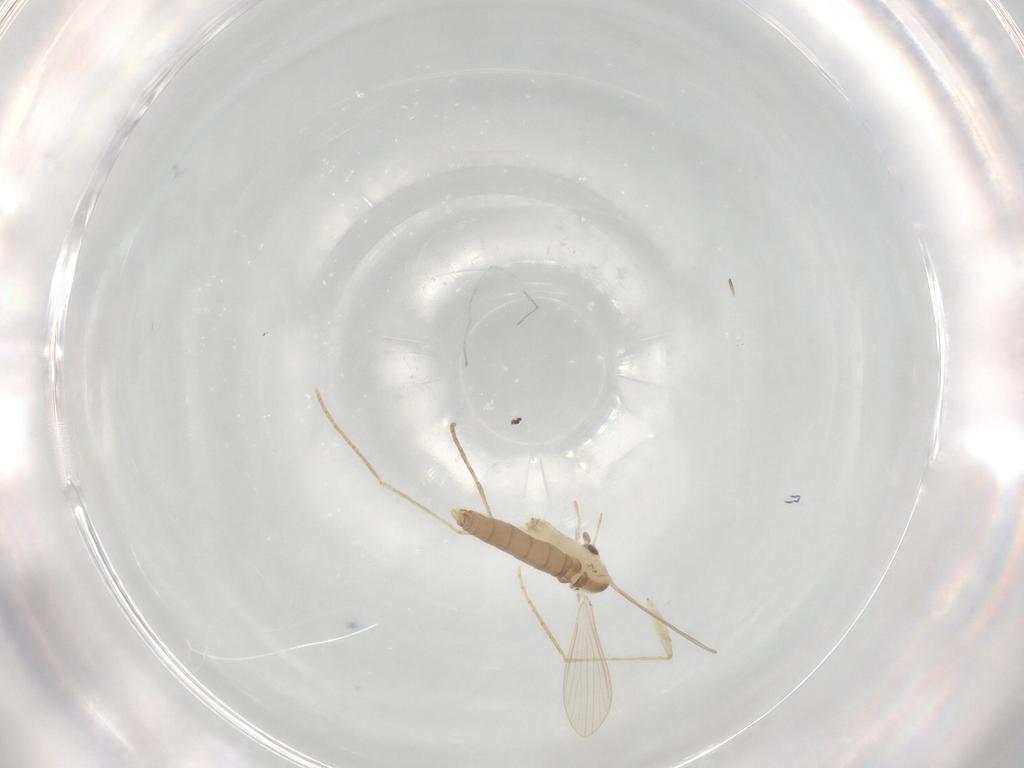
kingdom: Animalia
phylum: Arthropoda
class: Insecta
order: Diptera
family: Psychodidae
